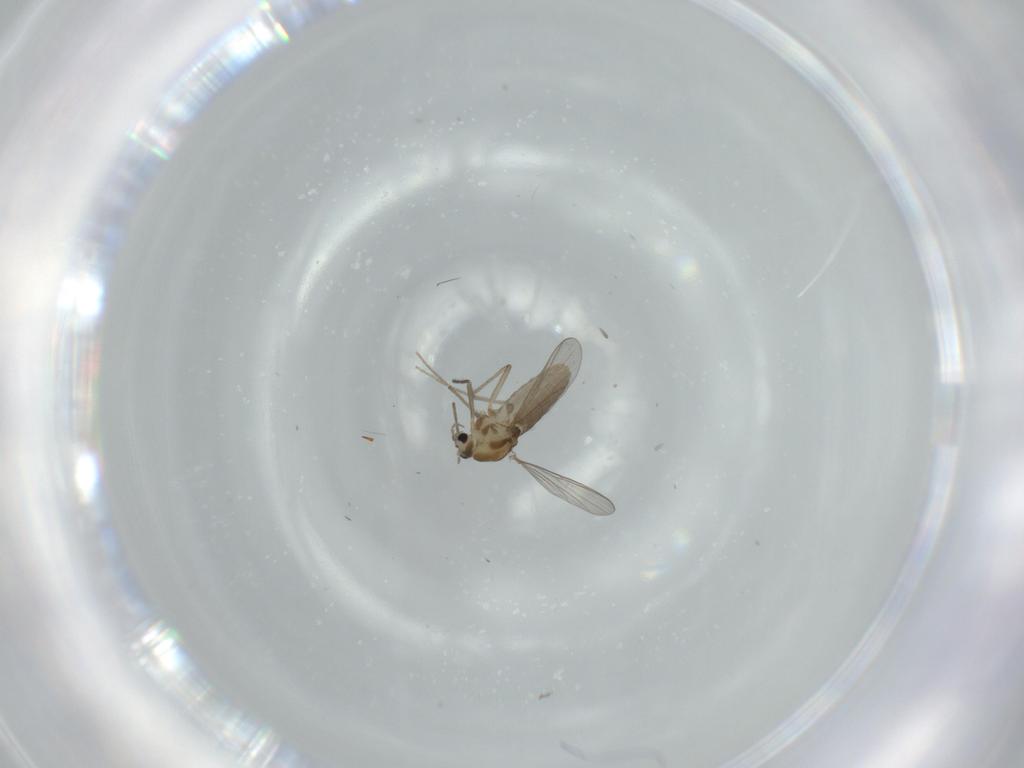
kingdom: Animalia
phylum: Arthropoda
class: Insecta
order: Diptera
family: Chironomidae
